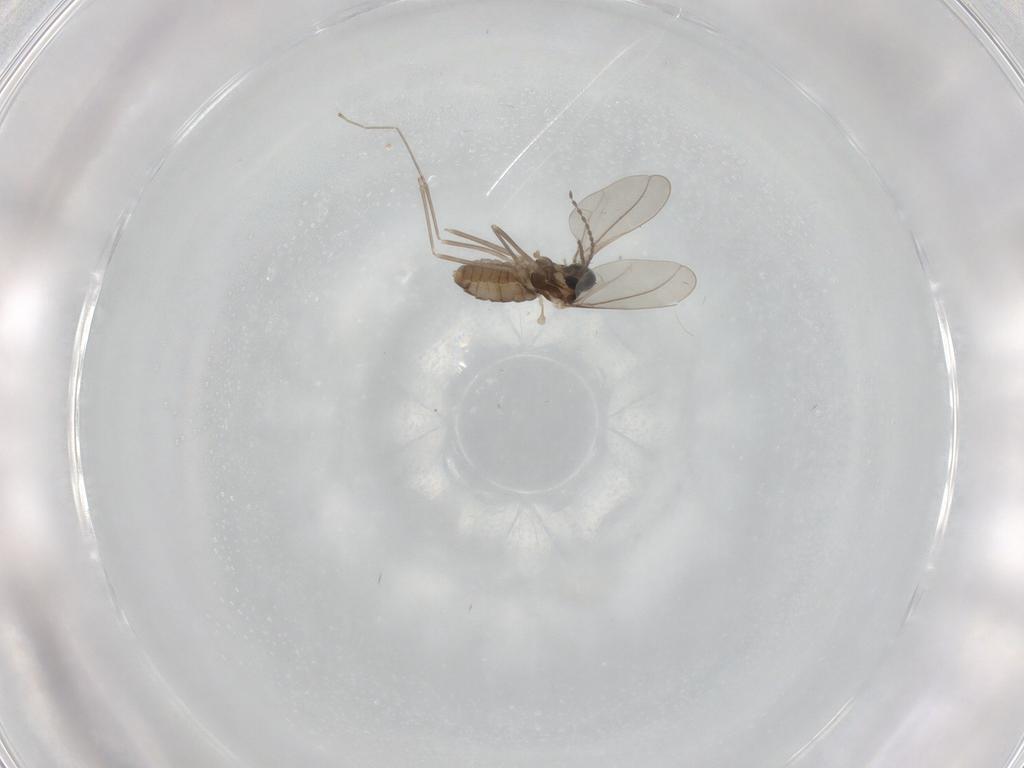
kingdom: Animalia
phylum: Arthropoda
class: Insecta
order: Diptera
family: Cecidomyiidae
